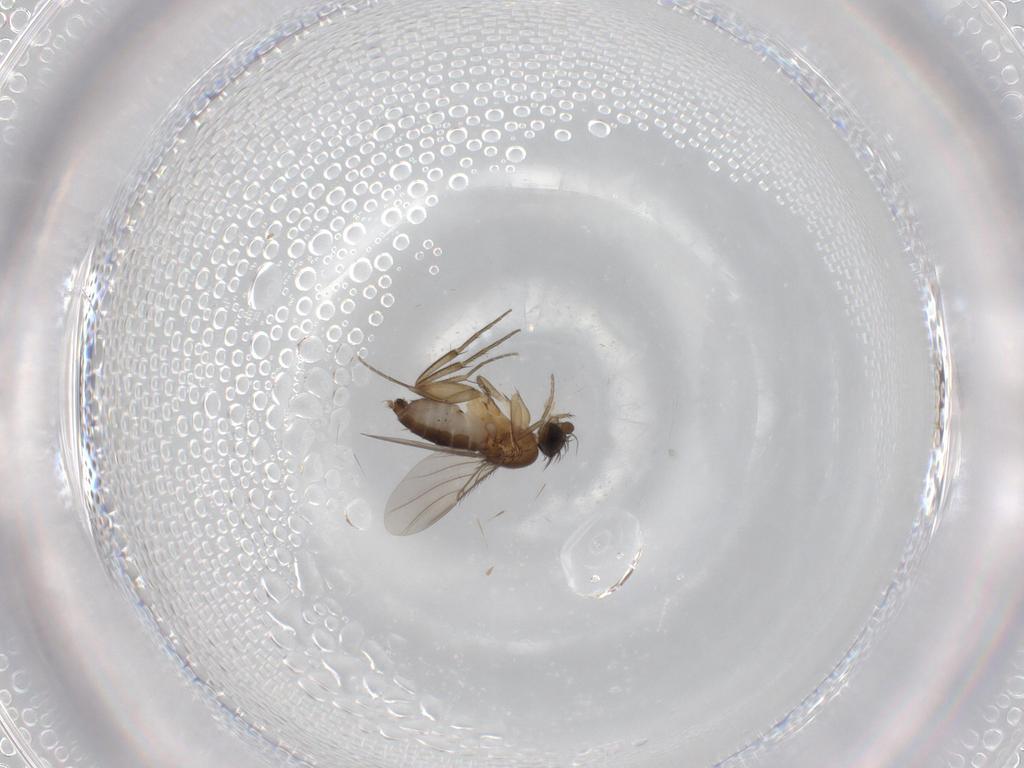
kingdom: Animalia
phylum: Arthropoda
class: Insecta
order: Diptera
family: Phoridae
